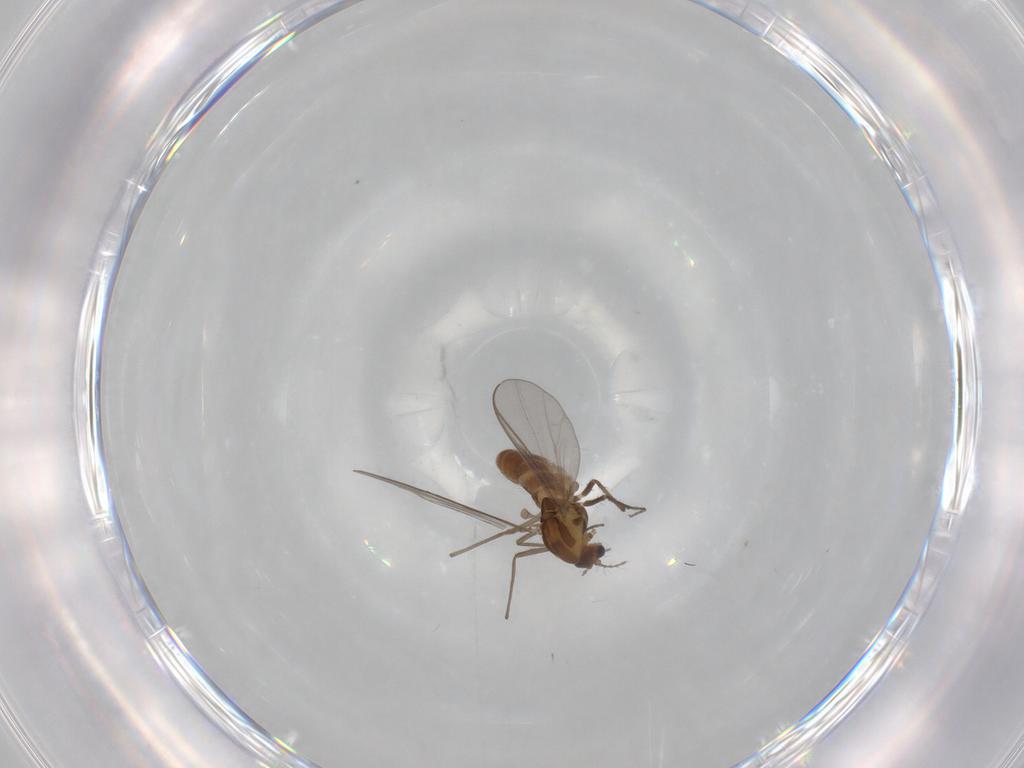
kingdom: Animalia
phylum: Arthropoda
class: Insecta
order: Diptera
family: Chironomidae
